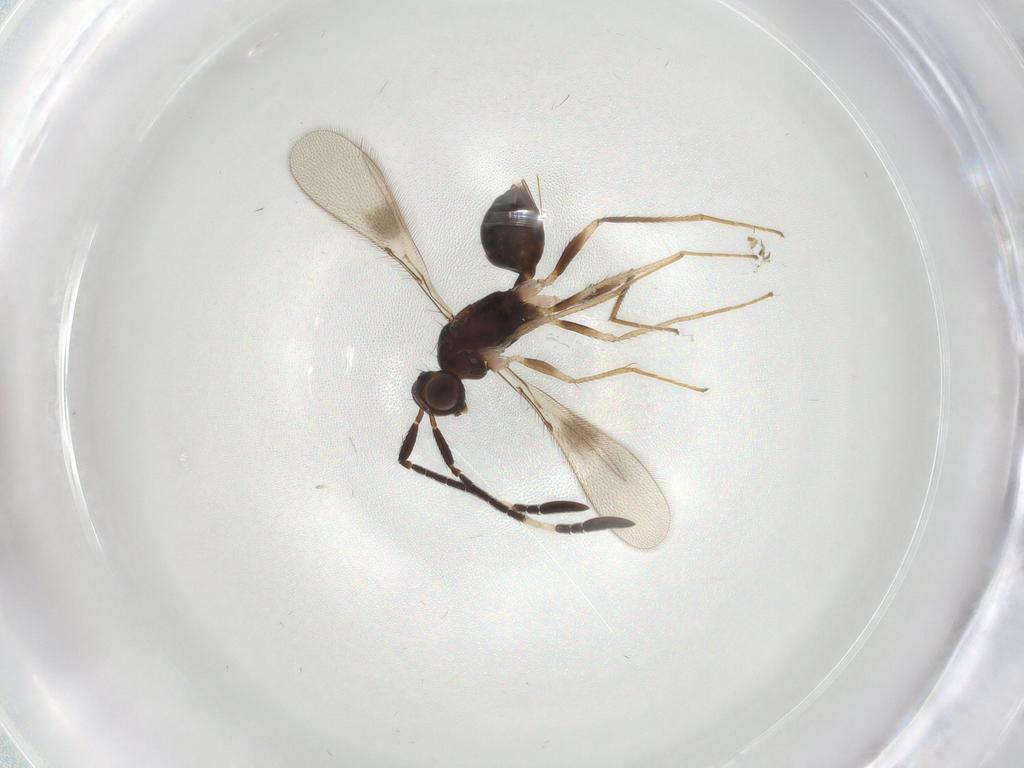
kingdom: Animalia
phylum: Arthropoda
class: Insecta
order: Hymenoptera
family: Mymaridae
